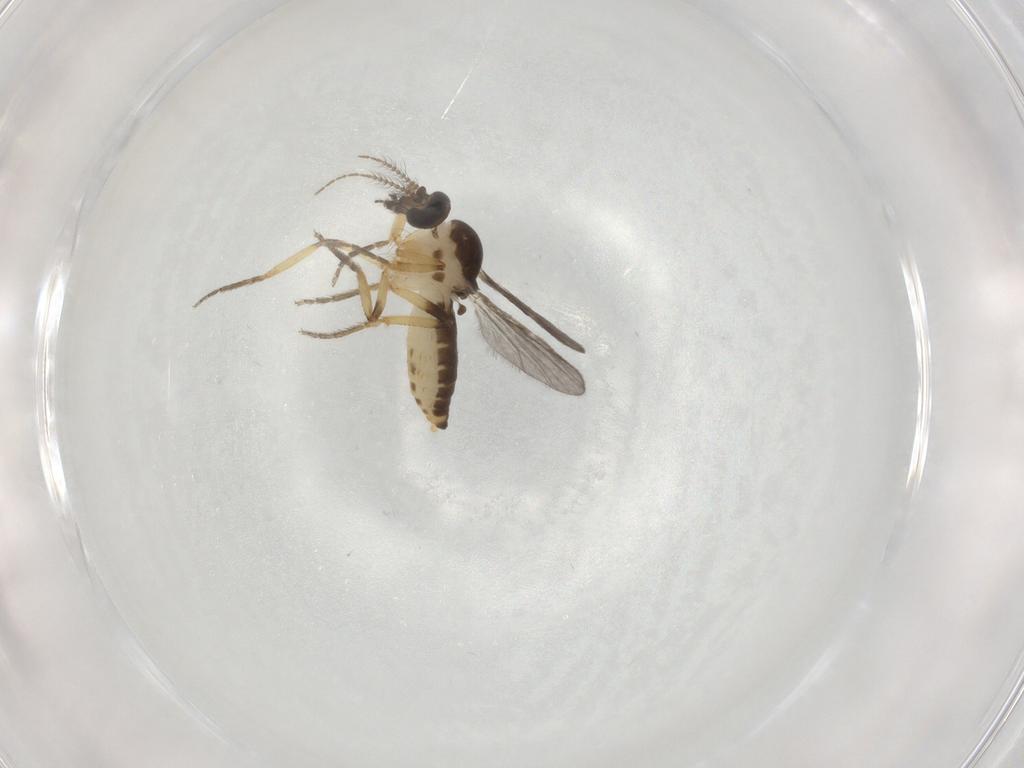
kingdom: Animalia
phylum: Arthropoda
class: Insecta
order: Diptera
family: Ceratopogonidae
